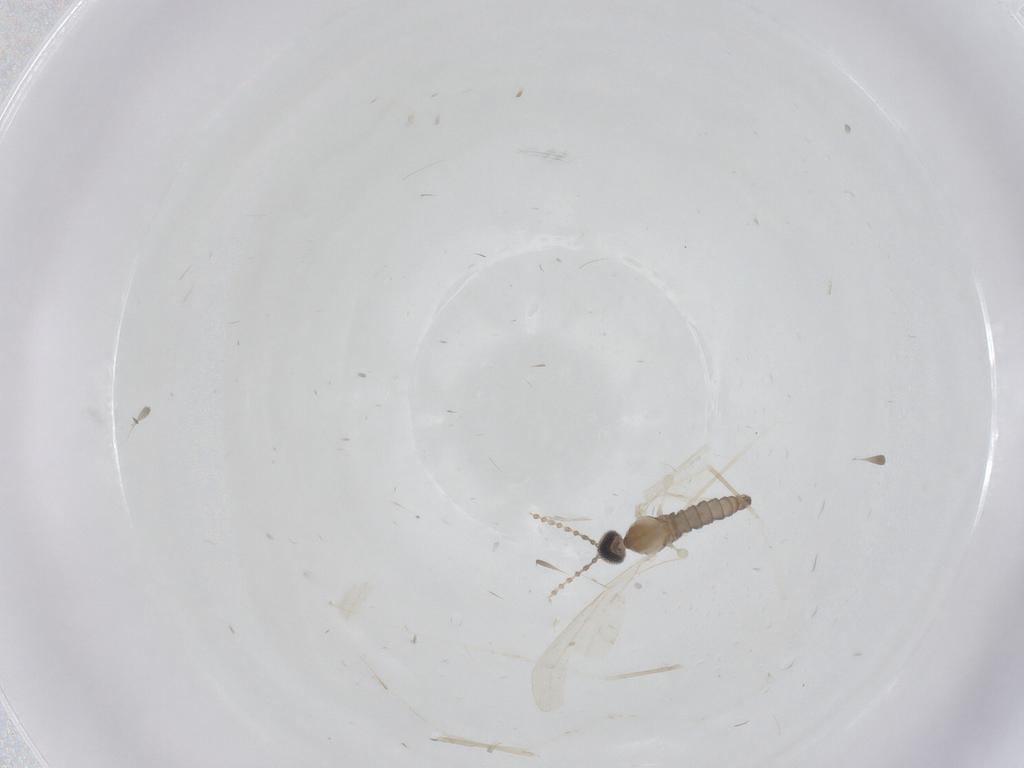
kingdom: Animalia
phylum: Arthropoda
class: Insecta
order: Diptera
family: Cecidomyiidae
